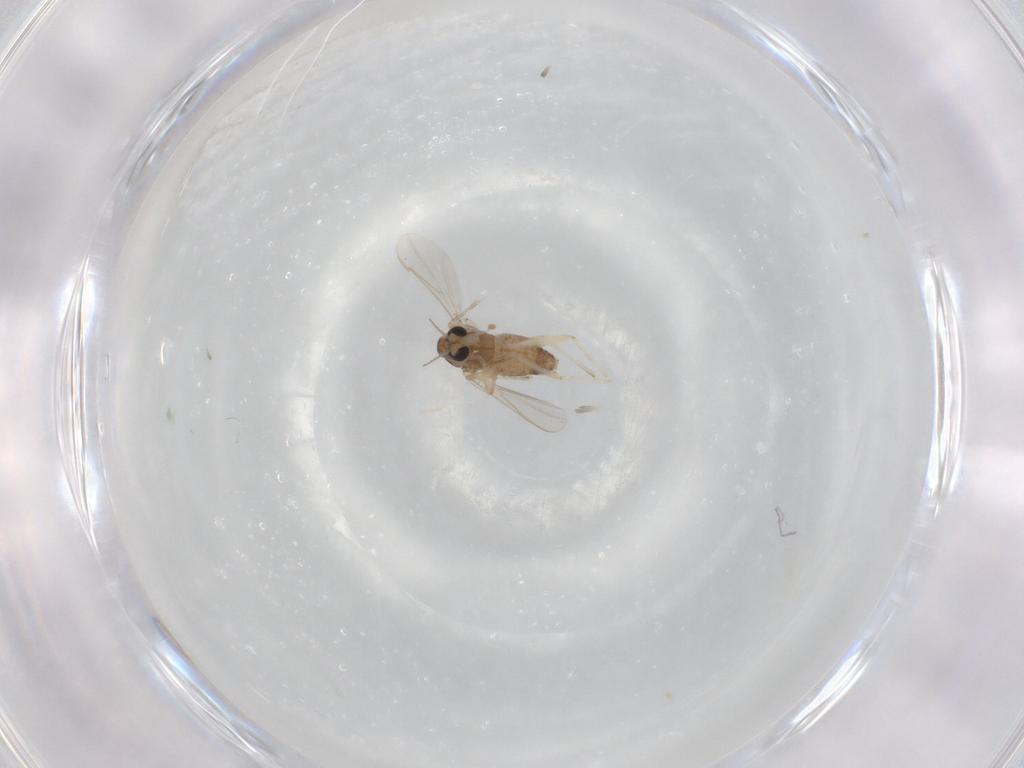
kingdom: Animalia
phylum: Arthropoda
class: Insecta
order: Diptera
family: Chironomidae
